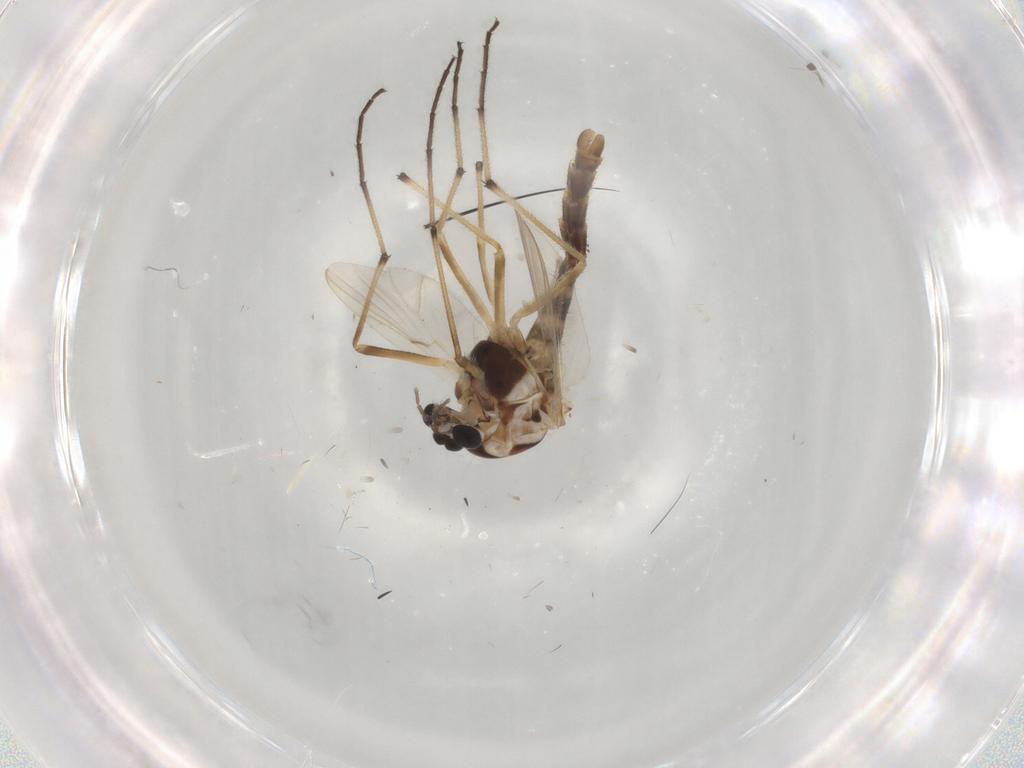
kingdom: Animalia
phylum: Arthropoda
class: Insecta
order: Diptera
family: Chironomidae
